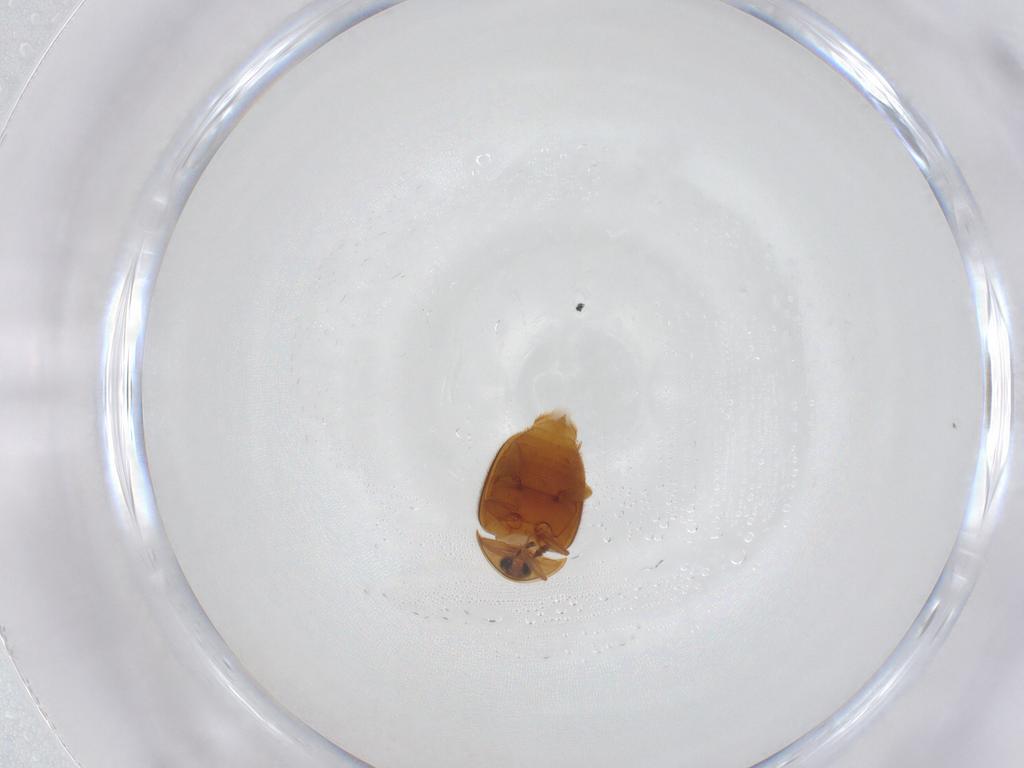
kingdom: Animalia
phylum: Arthropoda
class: Insecta
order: Coleoptera
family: Corylophidae
